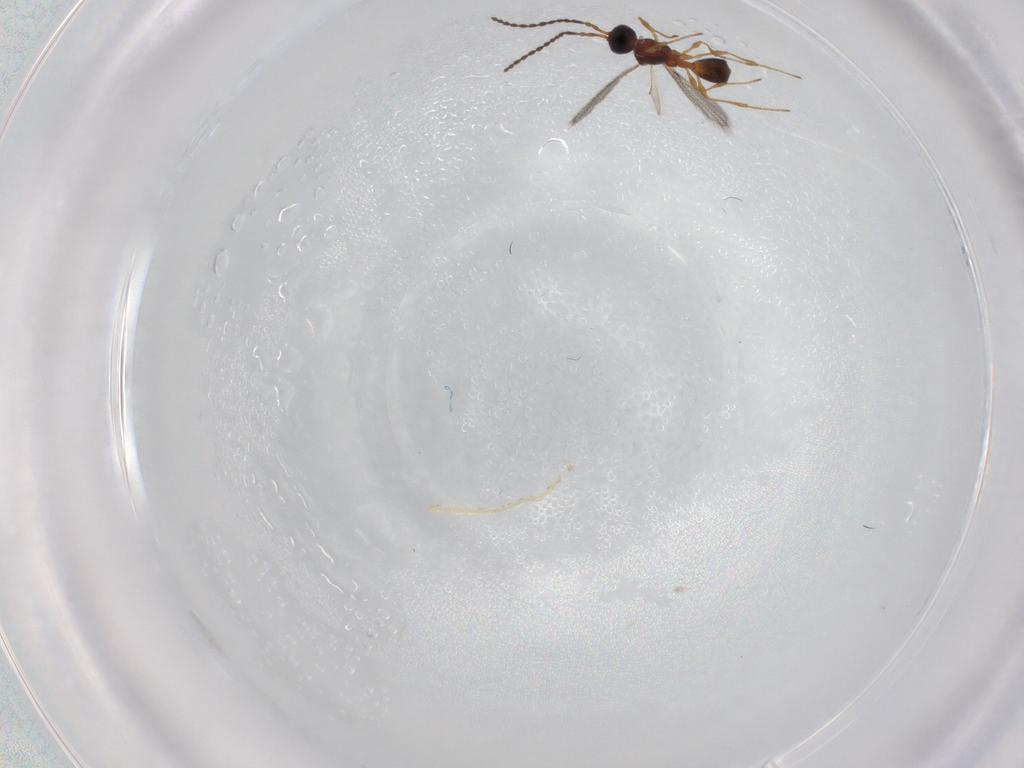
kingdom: Animalia
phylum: Arthropoda
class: Insecta
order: Hymenoptera
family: Diapriidae
